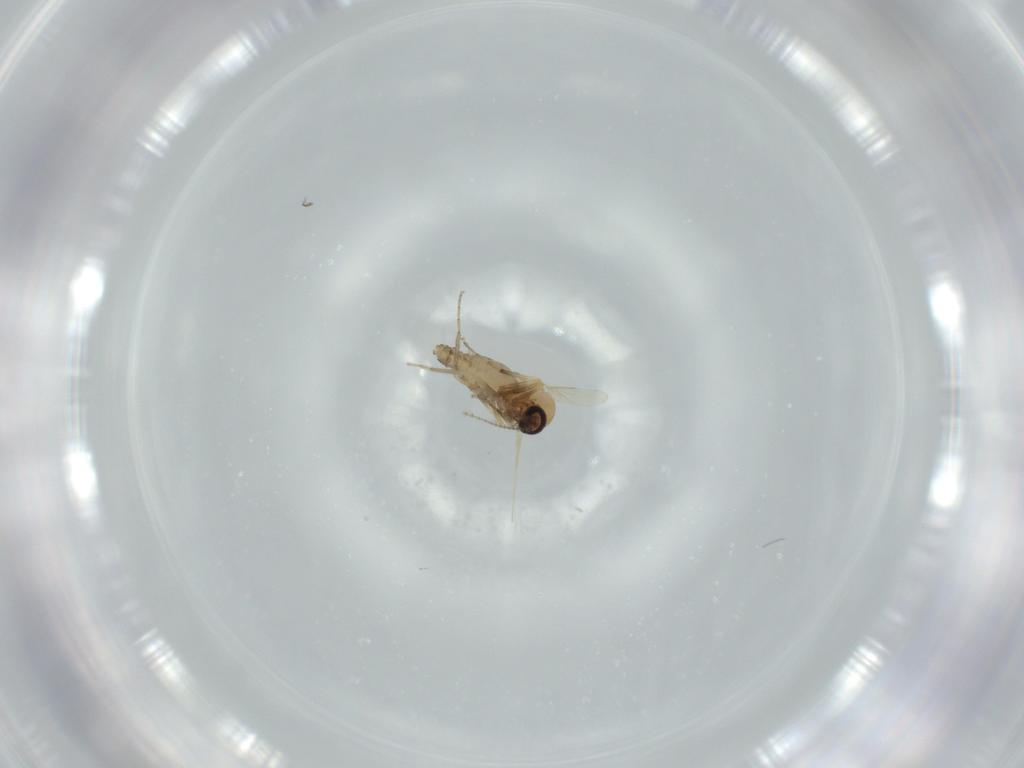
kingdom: Animalia
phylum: Arthropoda
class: Insecta
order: Diptera
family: Ceratopogonidae
